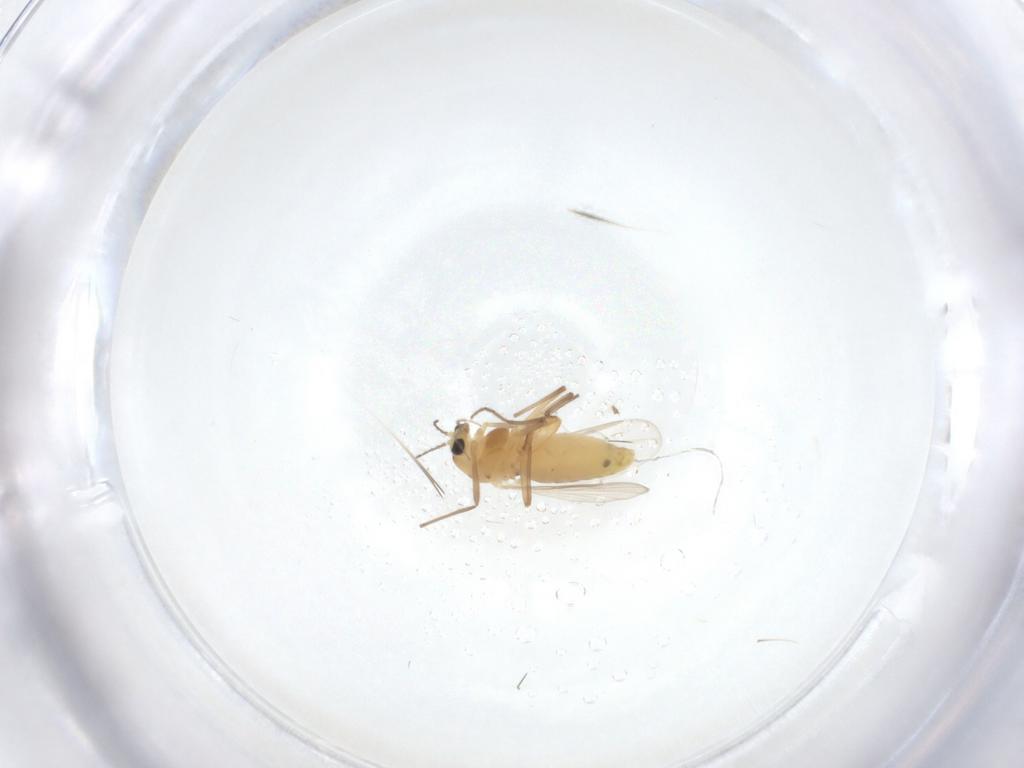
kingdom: Animalia
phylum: Arthropoda
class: Insecta
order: Diptera
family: Chironomidae
